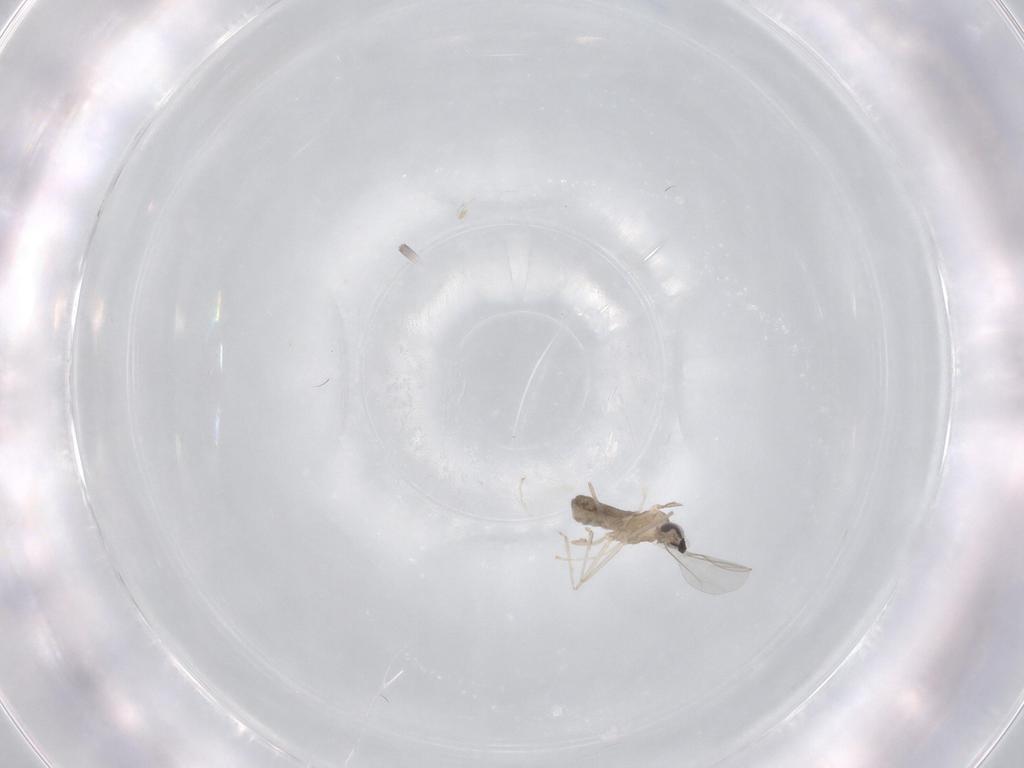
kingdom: Animalia
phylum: Arthropoda
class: Insecta
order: Diptera
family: Cecidomyiidae
